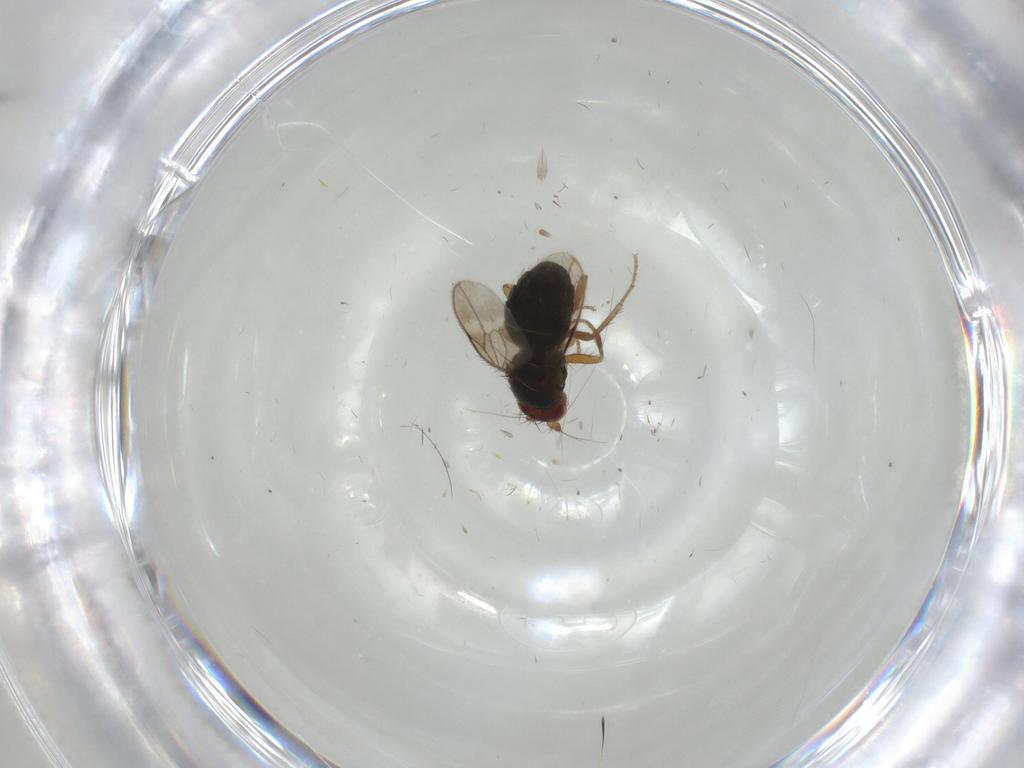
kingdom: Animalia
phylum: Arthropoda
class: Insecta
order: Diptera
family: Sphaeroceridae
